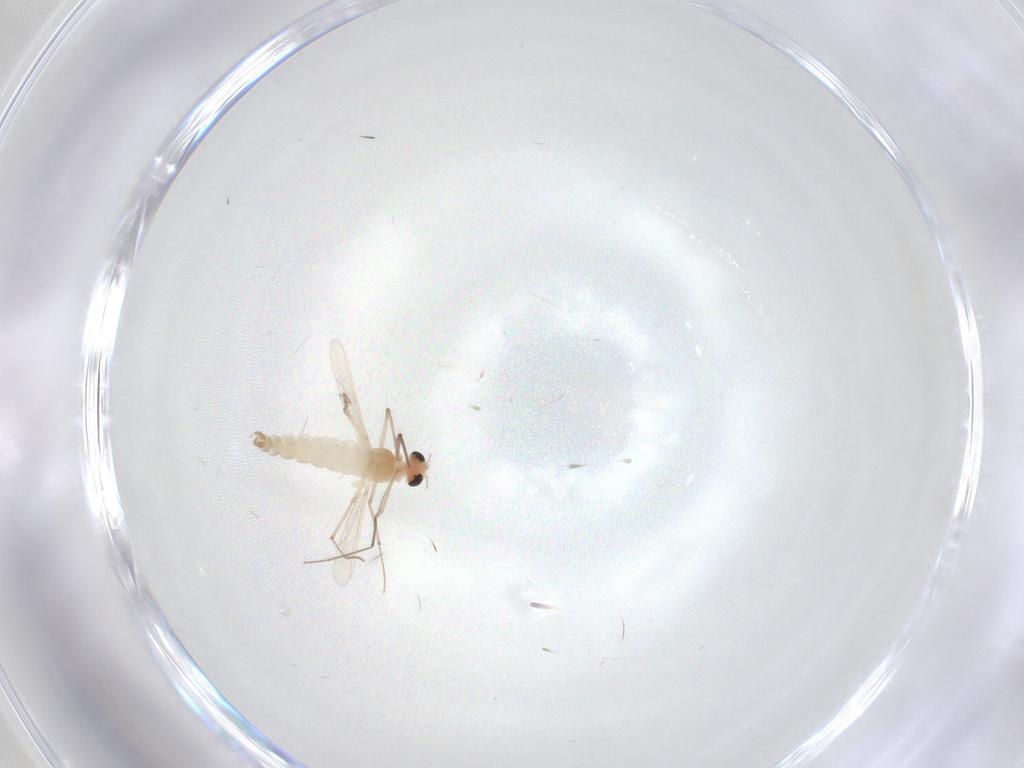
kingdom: Animalia
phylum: Arthropoda
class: Insecta
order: Diptera
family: Chironomidae
